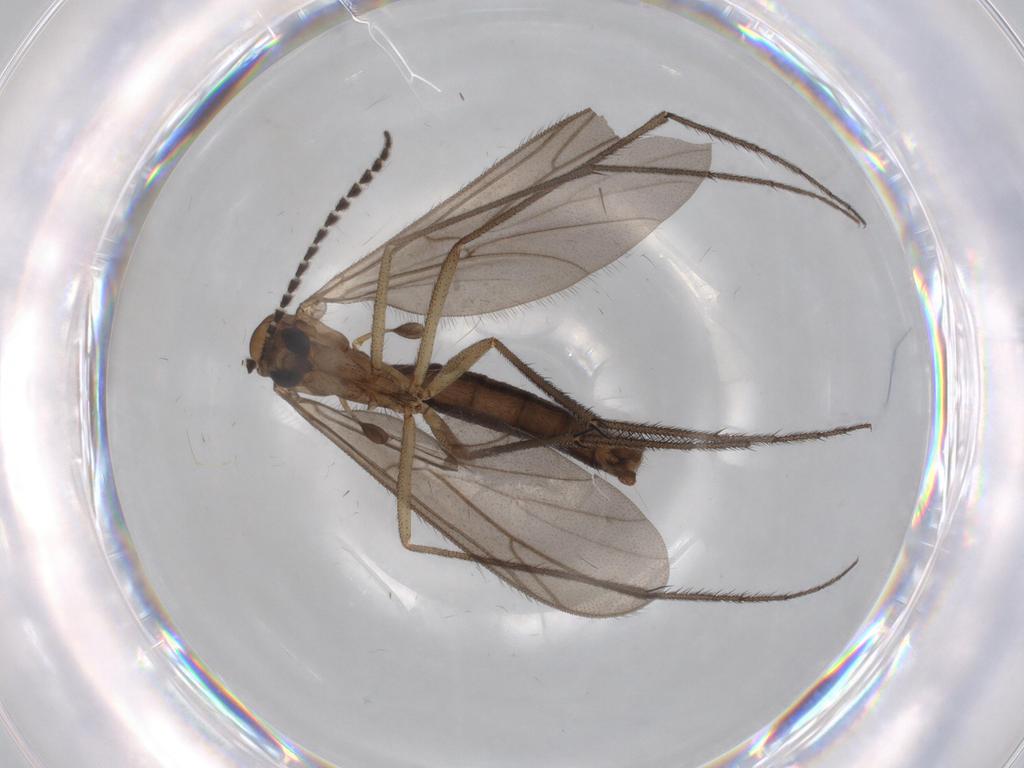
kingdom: Animalia
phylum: Arthropoda
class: Insecta
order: Diptera
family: Ditomyiidae
